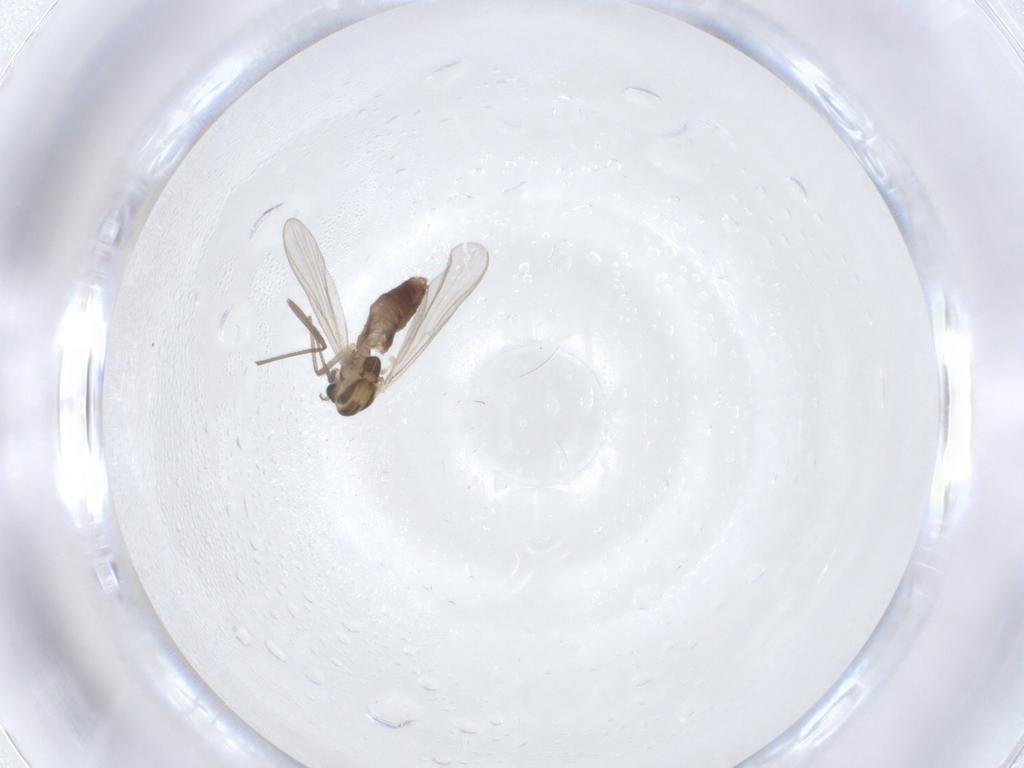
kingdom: Animalia
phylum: Arthropoda
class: Insecta
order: Diptera
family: Chironomidae
